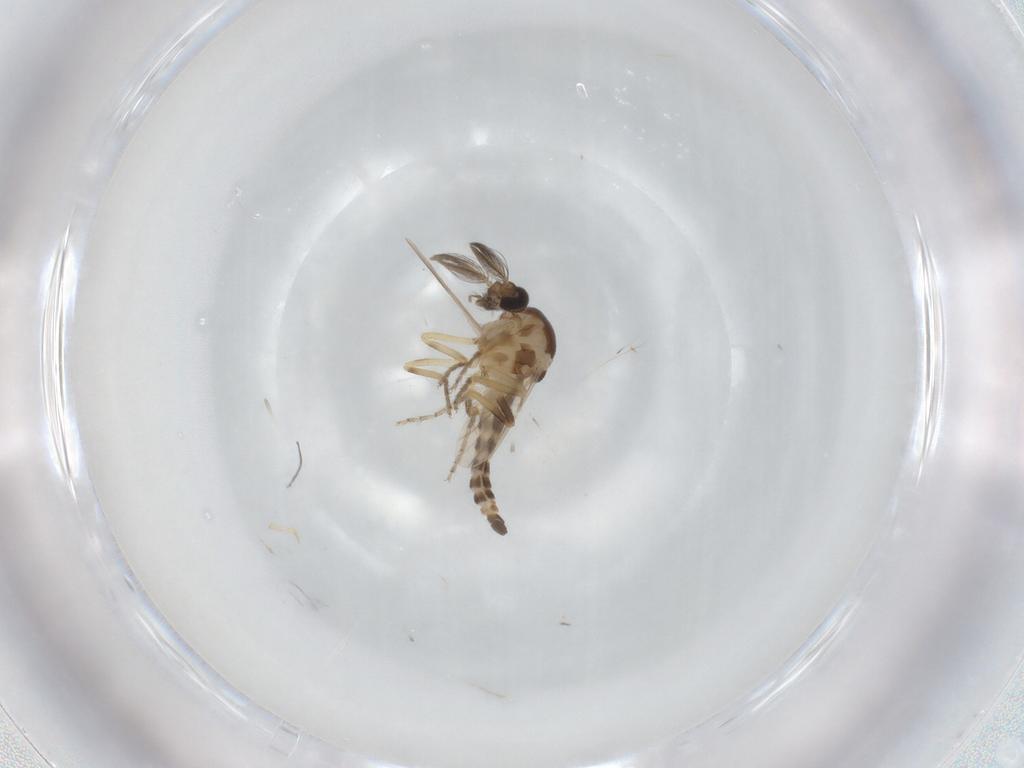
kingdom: Animalia
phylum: Arthropoda
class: Insecta
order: Diptera
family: Ceratopogonidae
